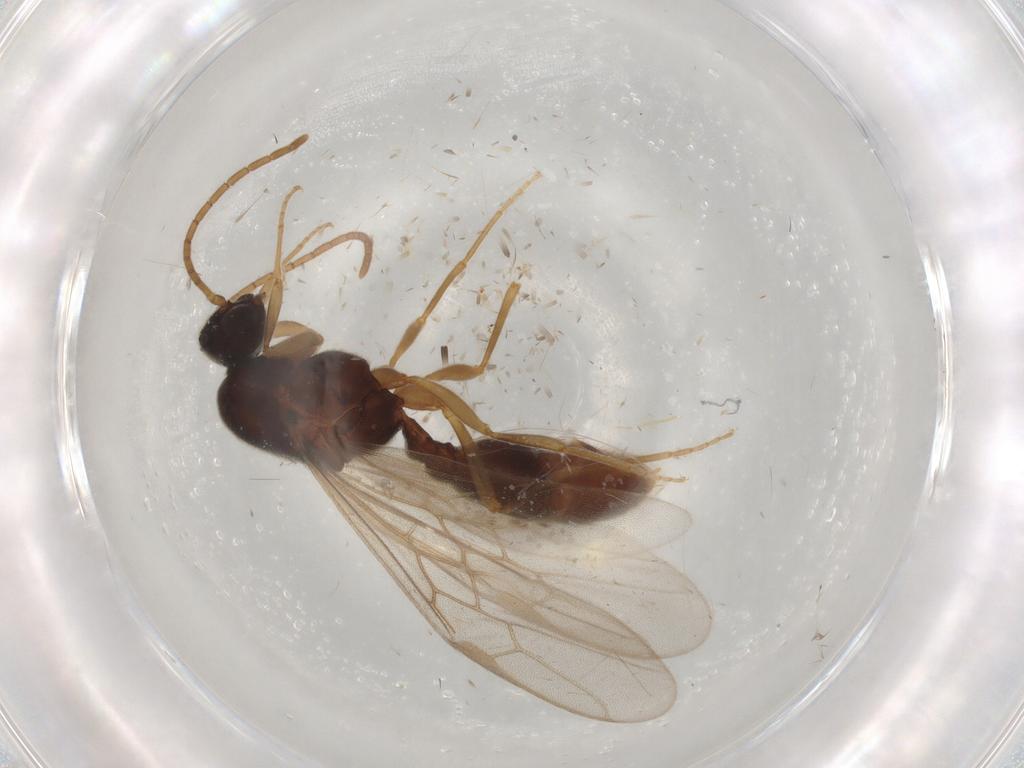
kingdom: Animalia
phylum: Arthropoda
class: Insecta
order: Hymenoptera
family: Formicidae
